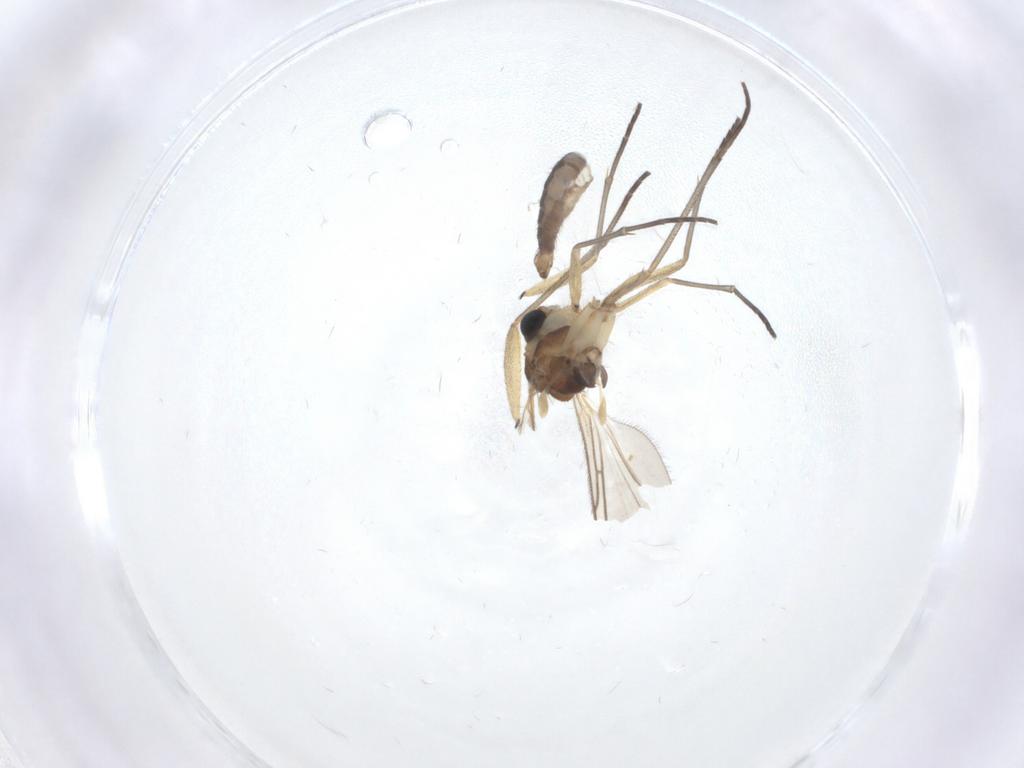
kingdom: Animalia
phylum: Arthropoda
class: Insecta
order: Diptera
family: Sciaridae
